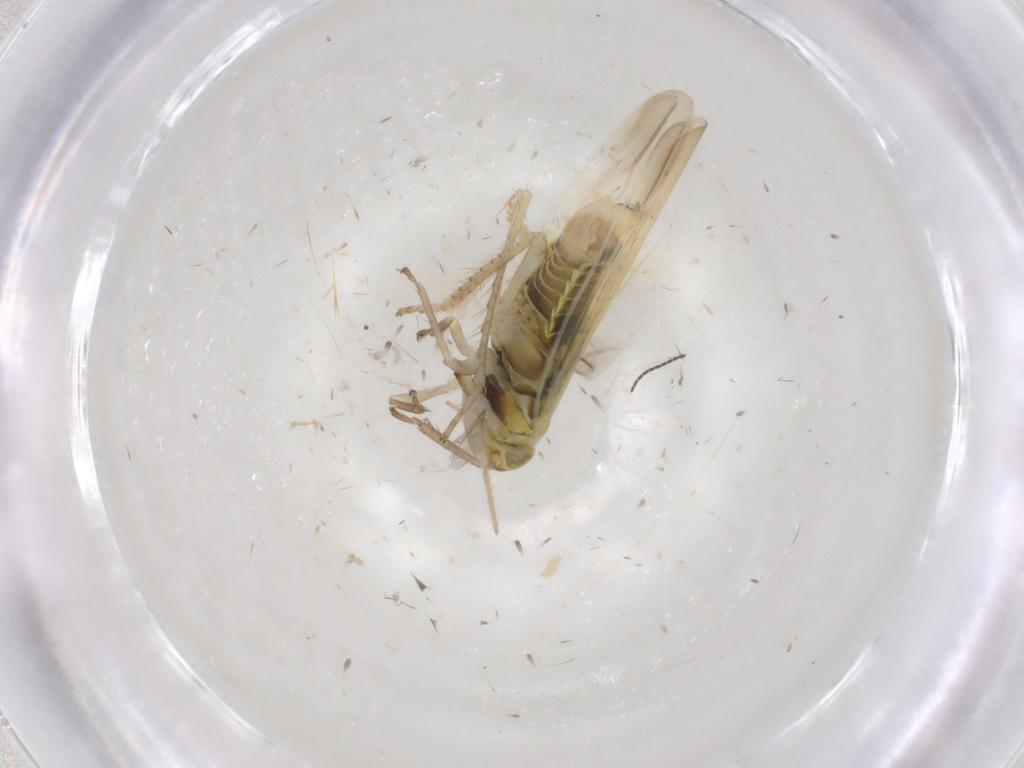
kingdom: Animalia
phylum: Arthropoda
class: Insecta
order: Hemiptera
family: Cicadellidae
